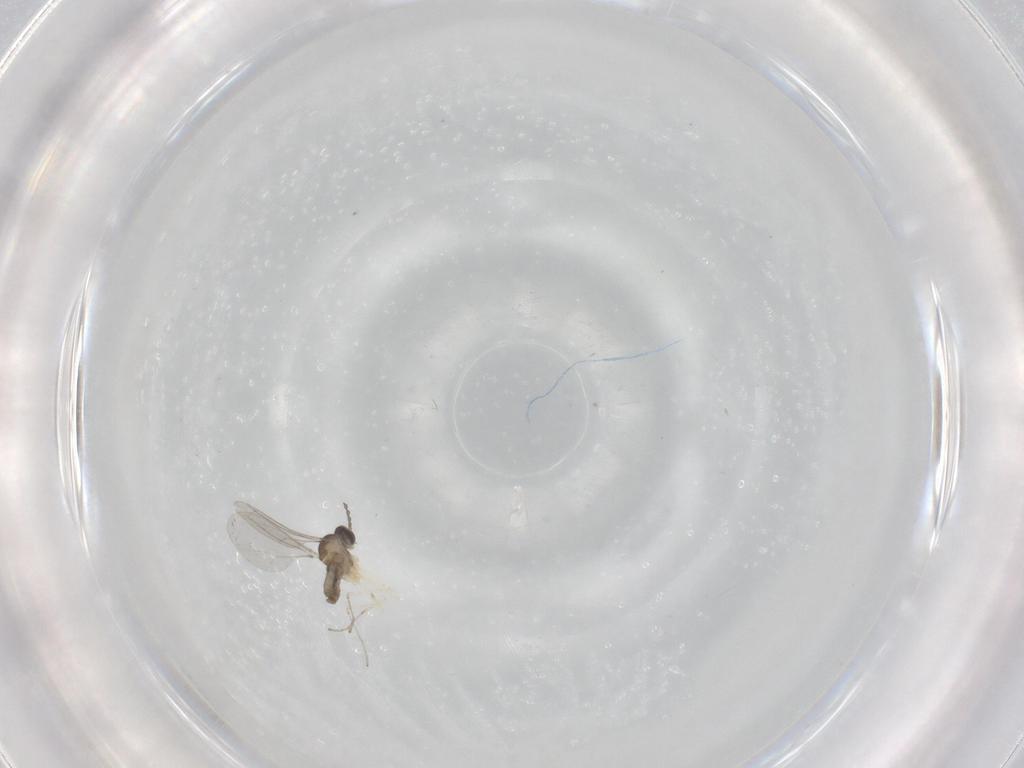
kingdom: Animalia
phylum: Arthropoda
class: Insecta
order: Diptera
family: Cecidomyiidae
